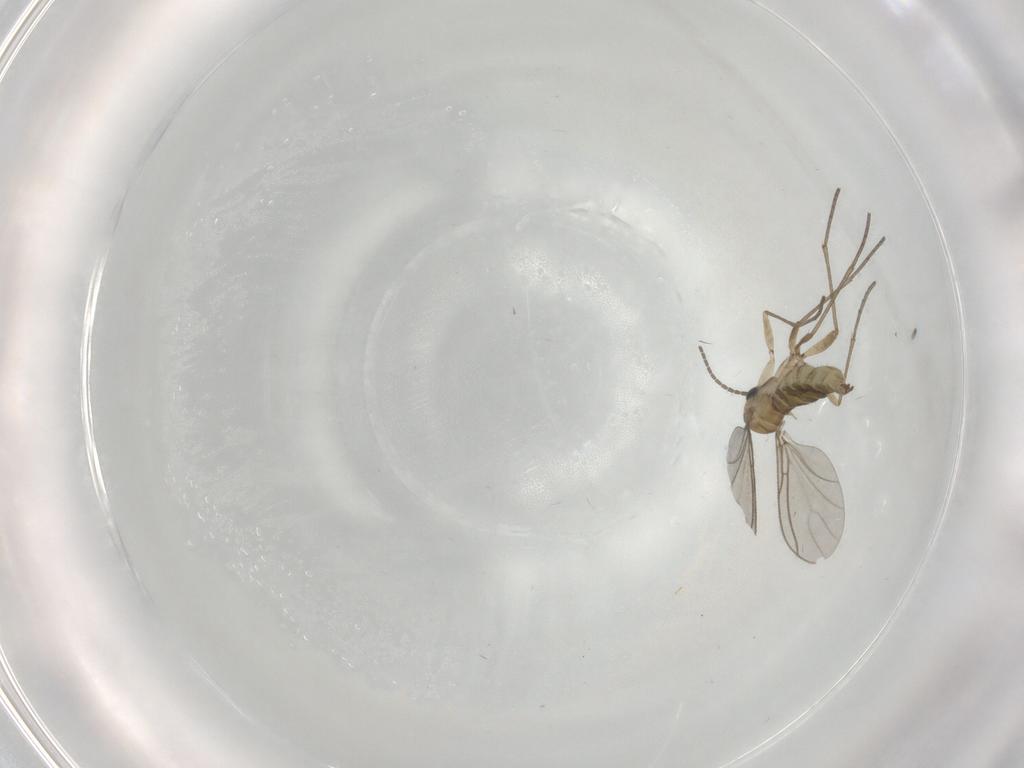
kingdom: Animalia
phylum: Arthropoda
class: Insecta
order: Diptera
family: Sciaridae
